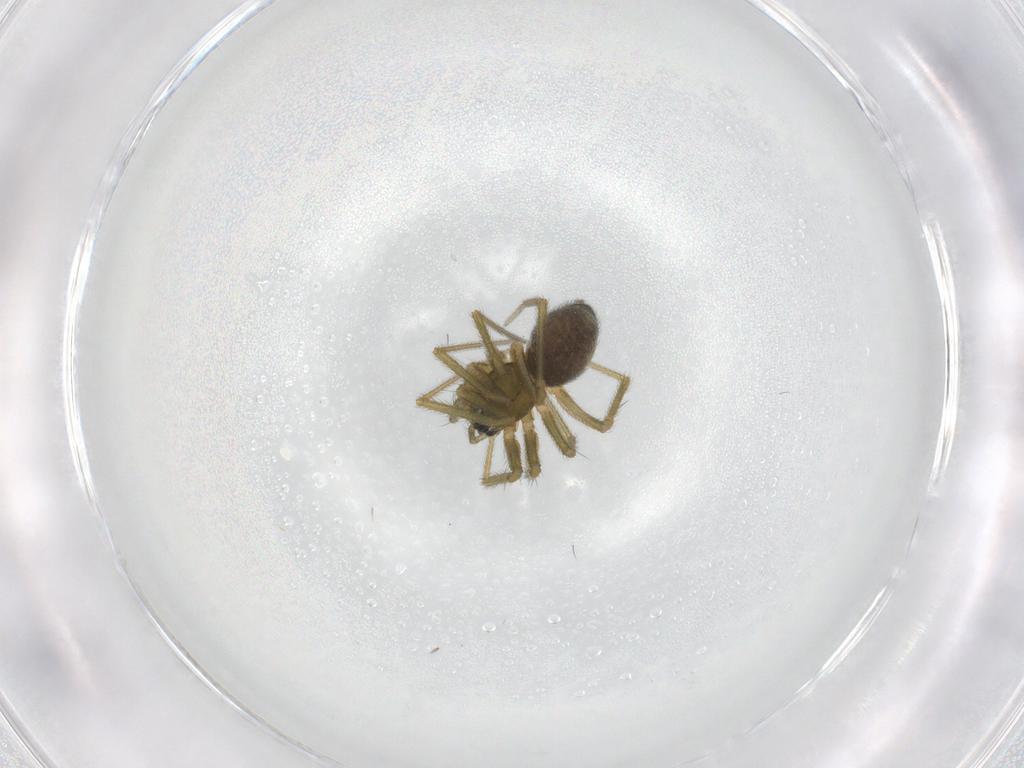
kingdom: Animalia
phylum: Arthropoda
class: Arachnida
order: Araneae
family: Linyphiidae
